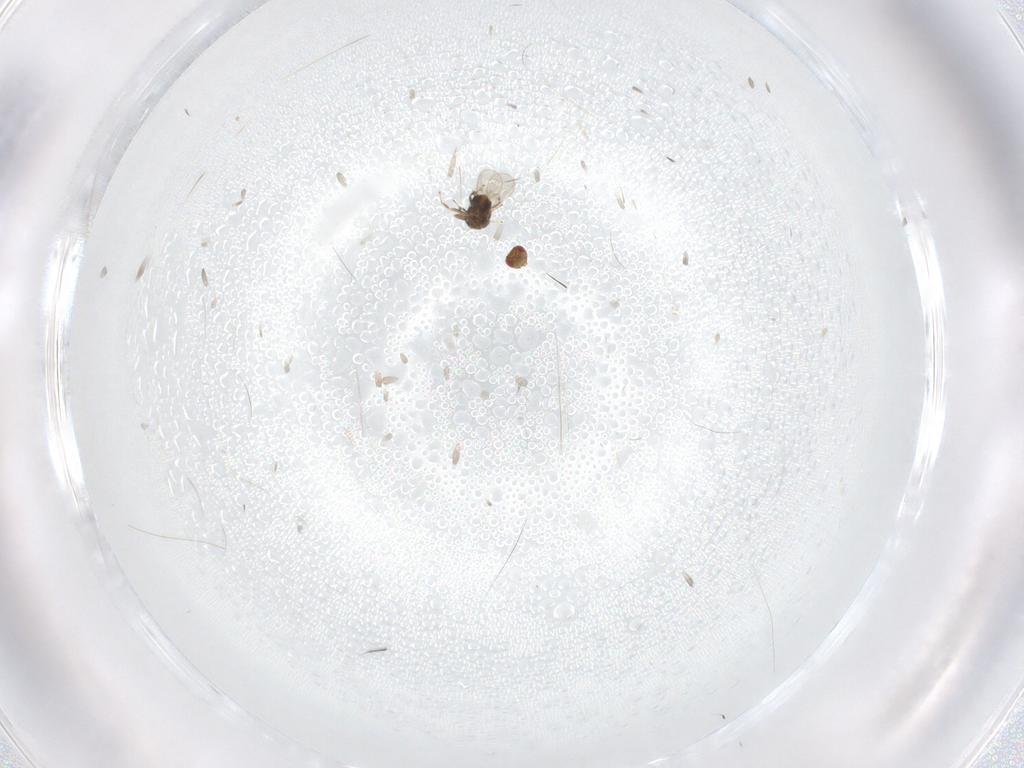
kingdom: Animalia
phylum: Arthropoda
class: Insecta
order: Hymenoptera
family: Trichogrammatidae
